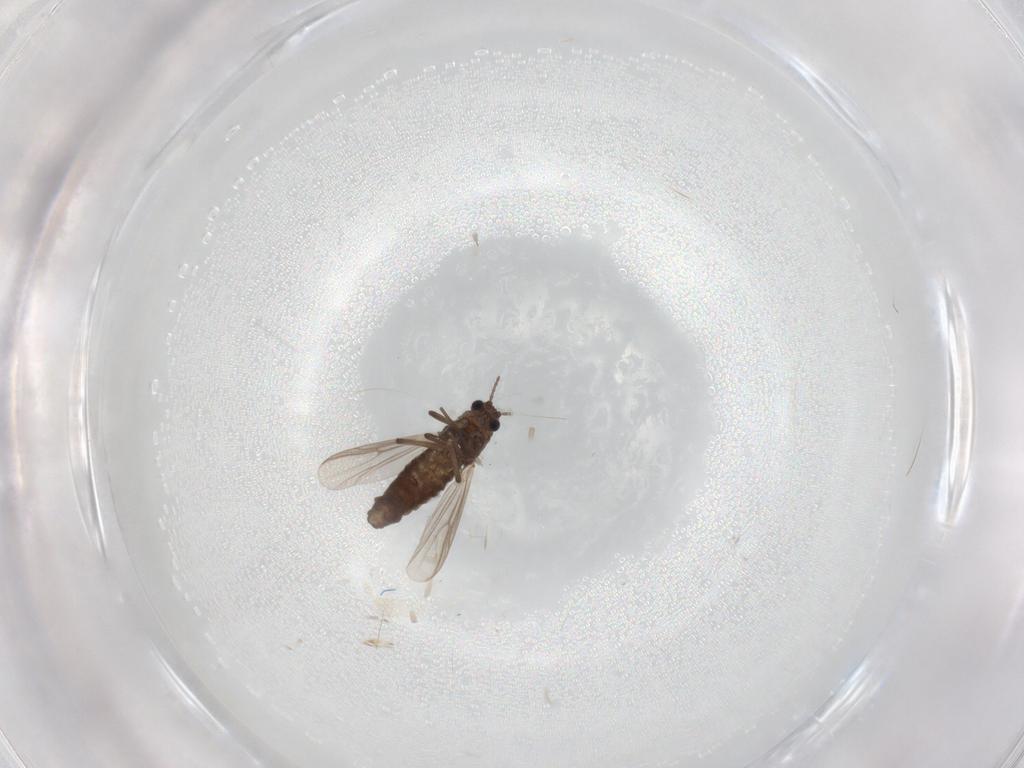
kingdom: Animalia
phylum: Arthropoda
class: Insecta
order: Diptera
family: Chironomidae
